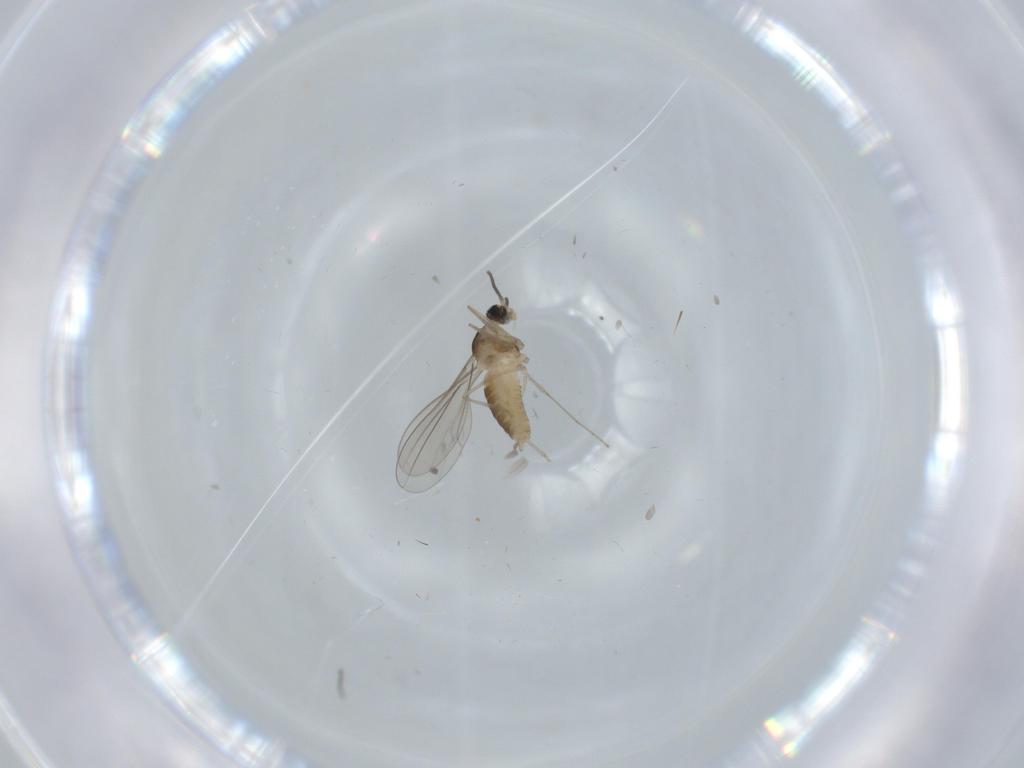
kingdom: Animalia
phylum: Arthropoda
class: Insecta
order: Diptera
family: Cecidomyiidae
